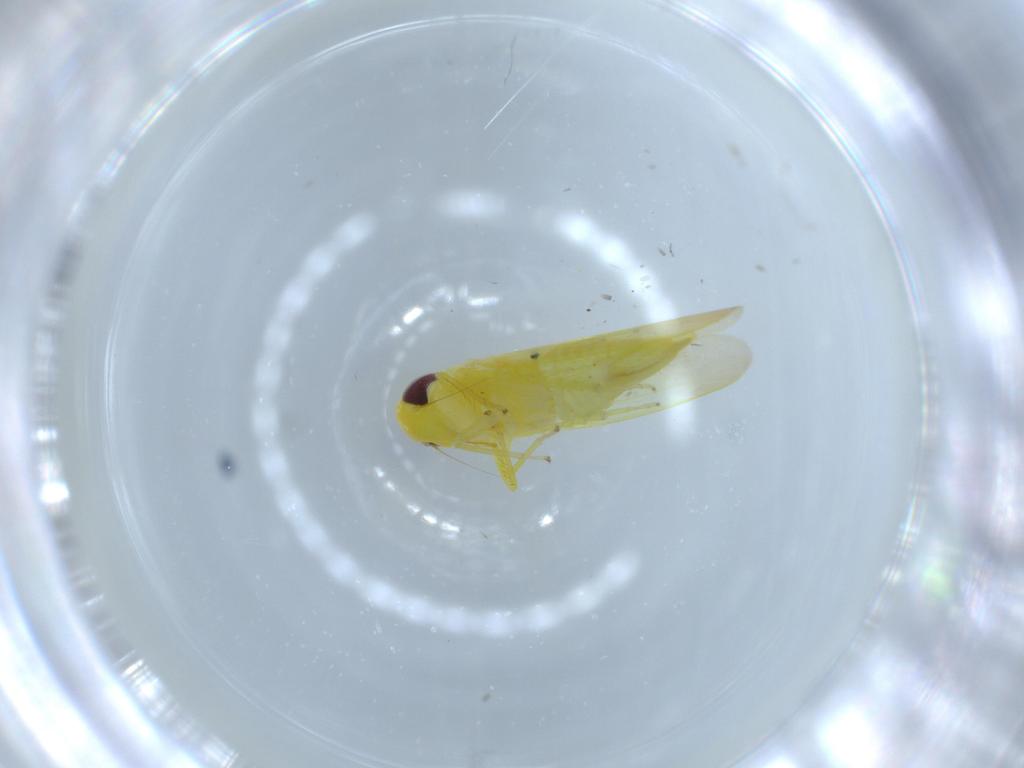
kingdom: Animalia
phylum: Arthropoda
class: Insecta
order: Hemiptera
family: Cicadellidae
